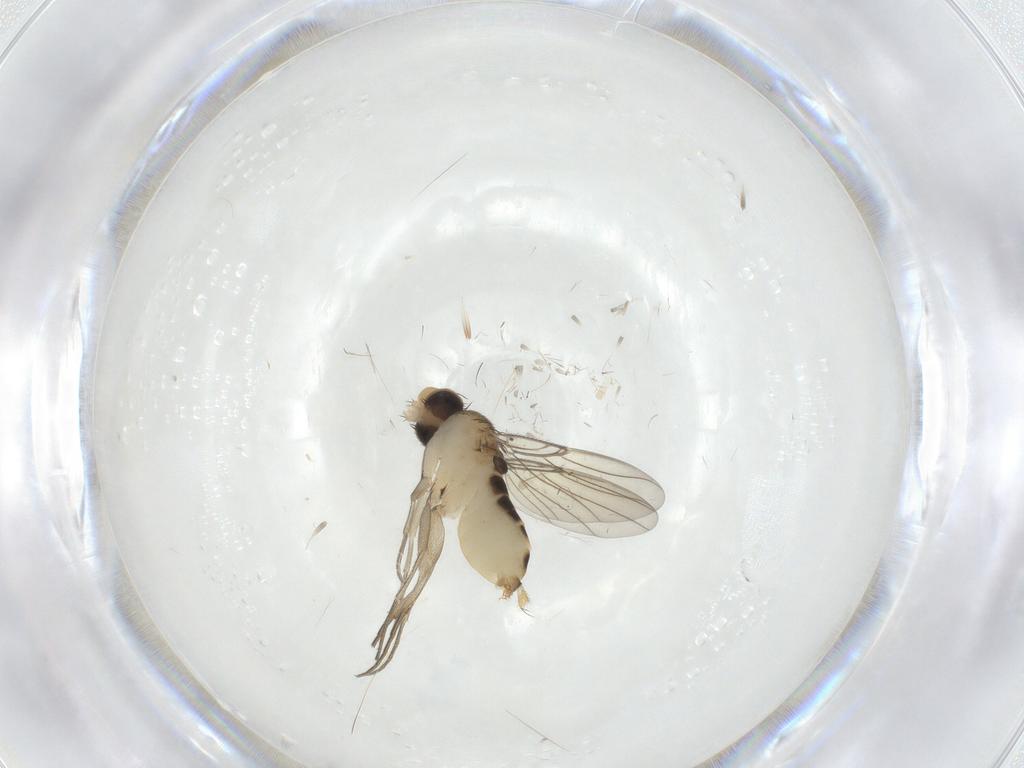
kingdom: Animalia
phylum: Arthropoda
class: Insecta
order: Diptera
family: Phoridae
